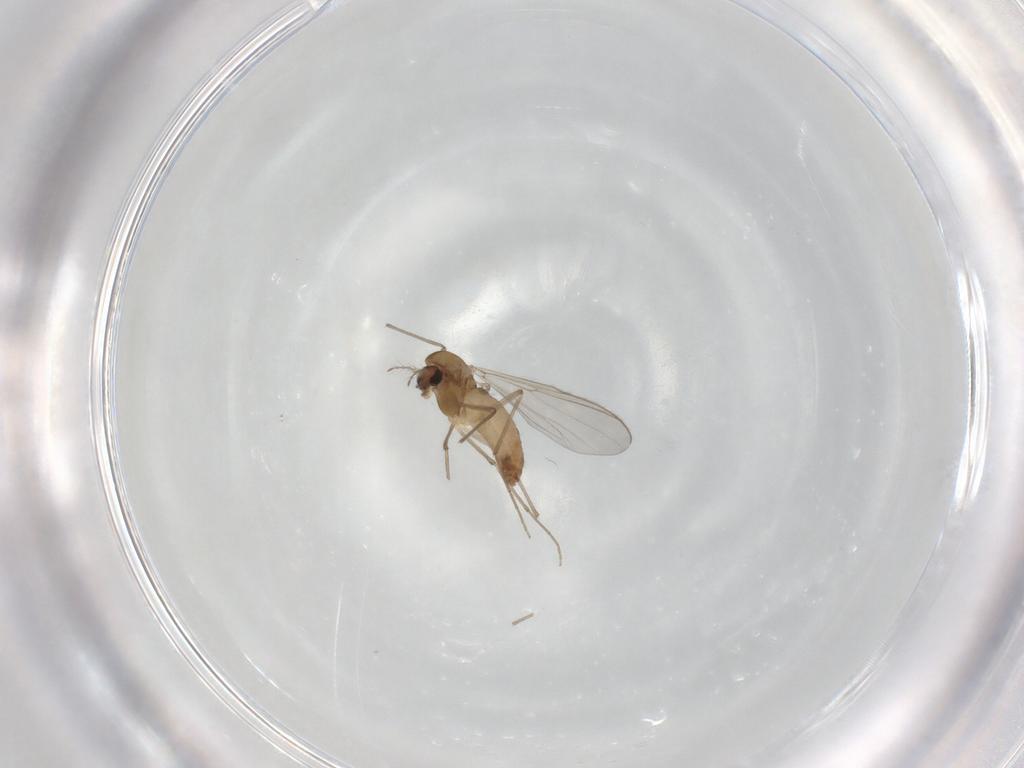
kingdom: Animalia
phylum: Arthropoda
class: Insecta
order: Diptera
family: Chironomidae
